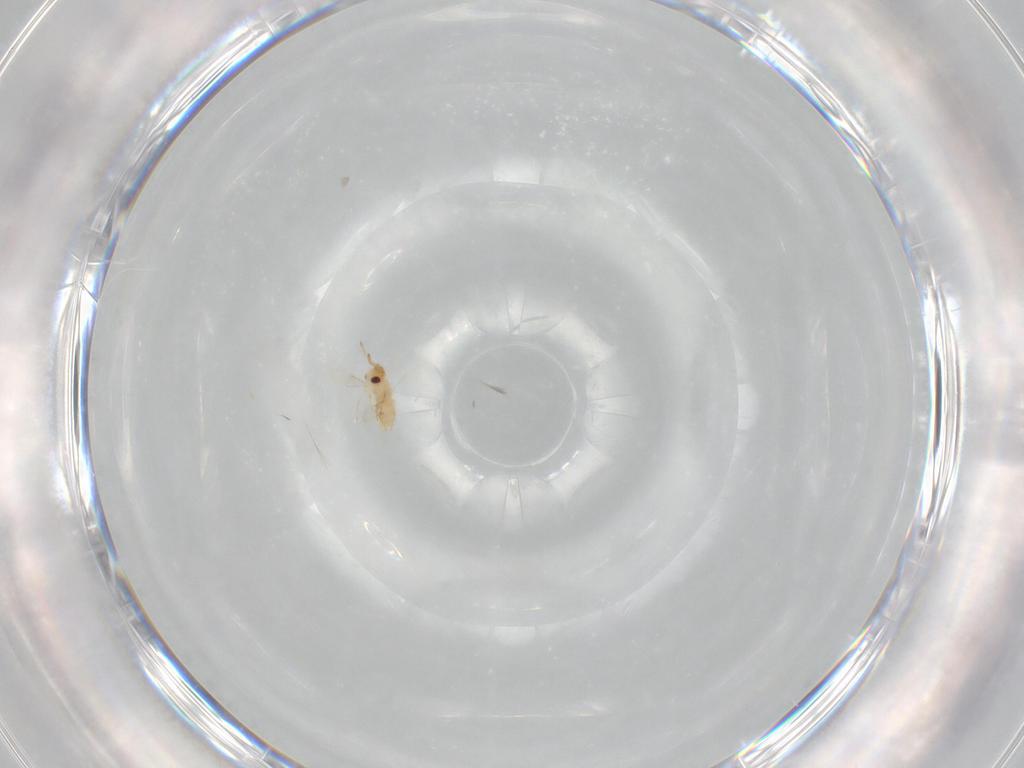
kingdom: Animalia
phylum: Arthropoda
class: Insecta
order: Hymenoptera
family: Aphelinidae
